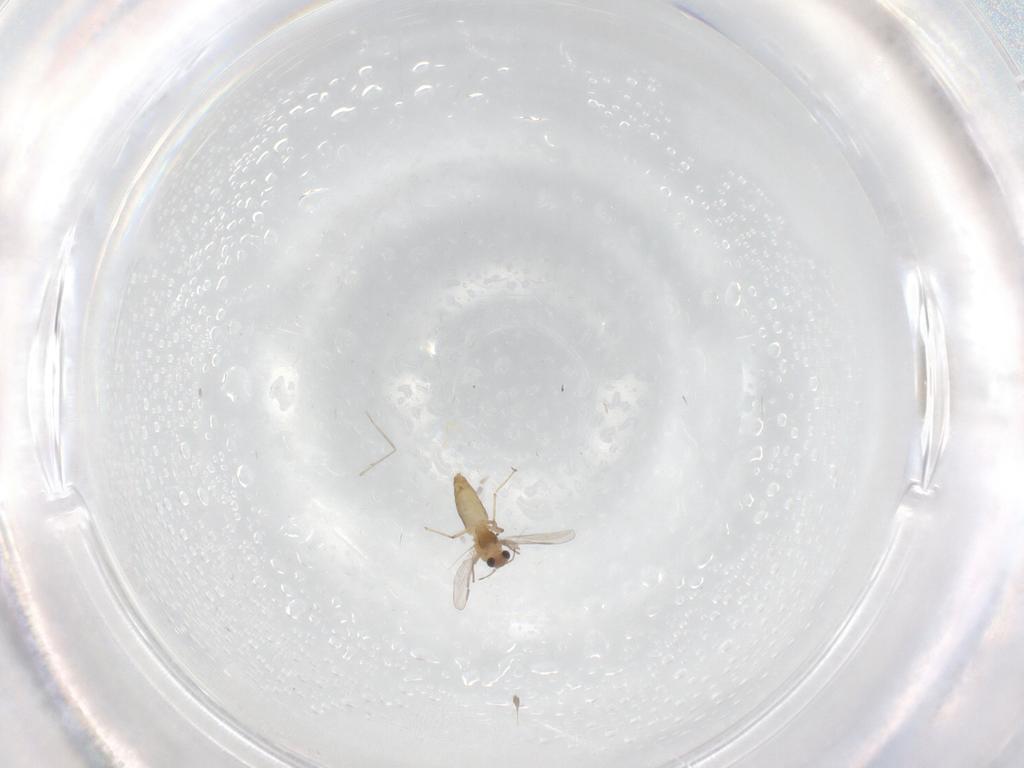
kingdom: Animalia
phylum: Arthropoda
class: Insecta
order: Diptera
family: Chironomidae
